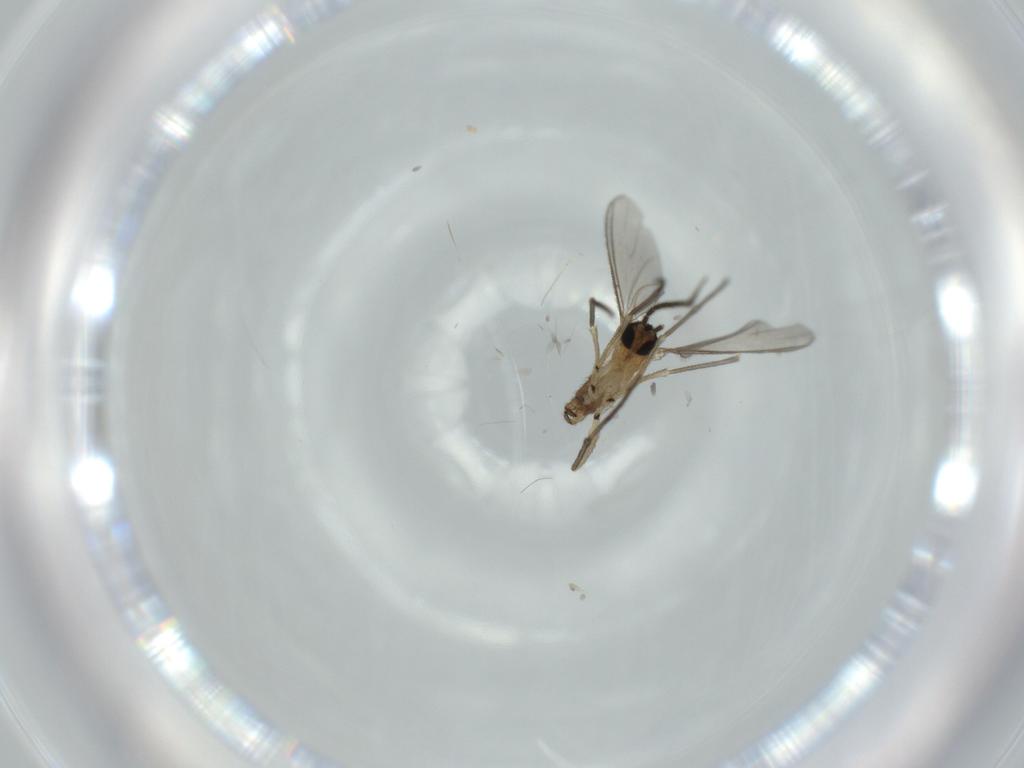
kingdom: Animalia
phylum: Arthropoda
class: Insecta
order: Diptera
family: Cecidomyiidae
